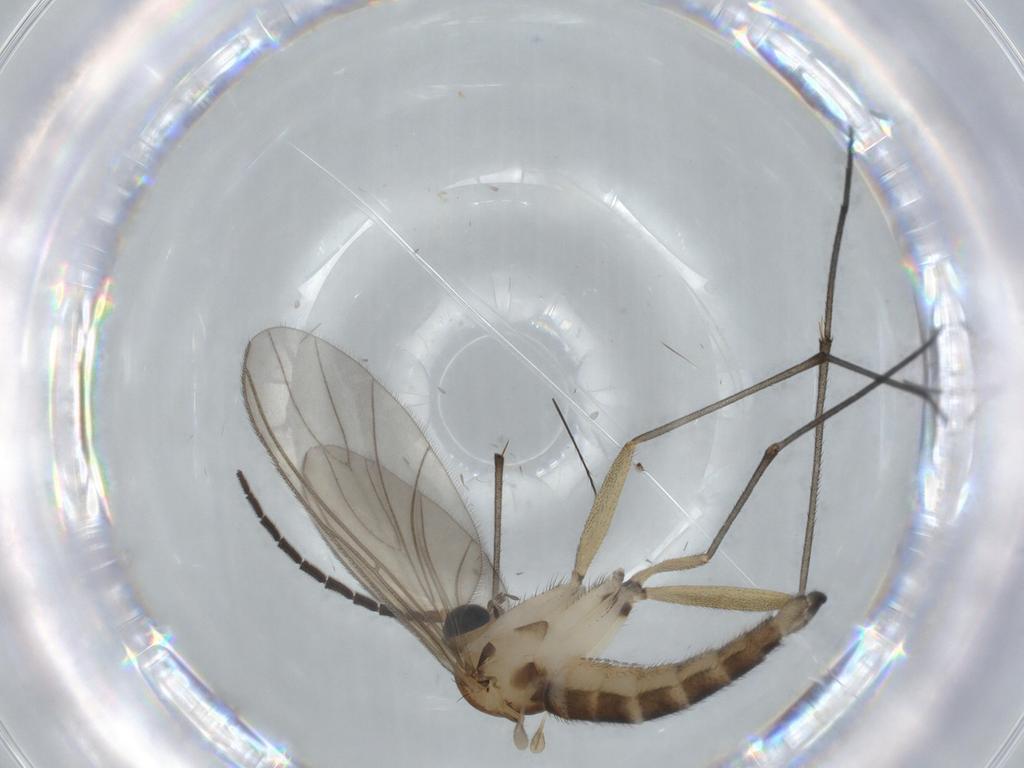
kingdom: Animalia
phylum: Arthropoda
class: Insecta
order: Diptera
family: Sciaridae
